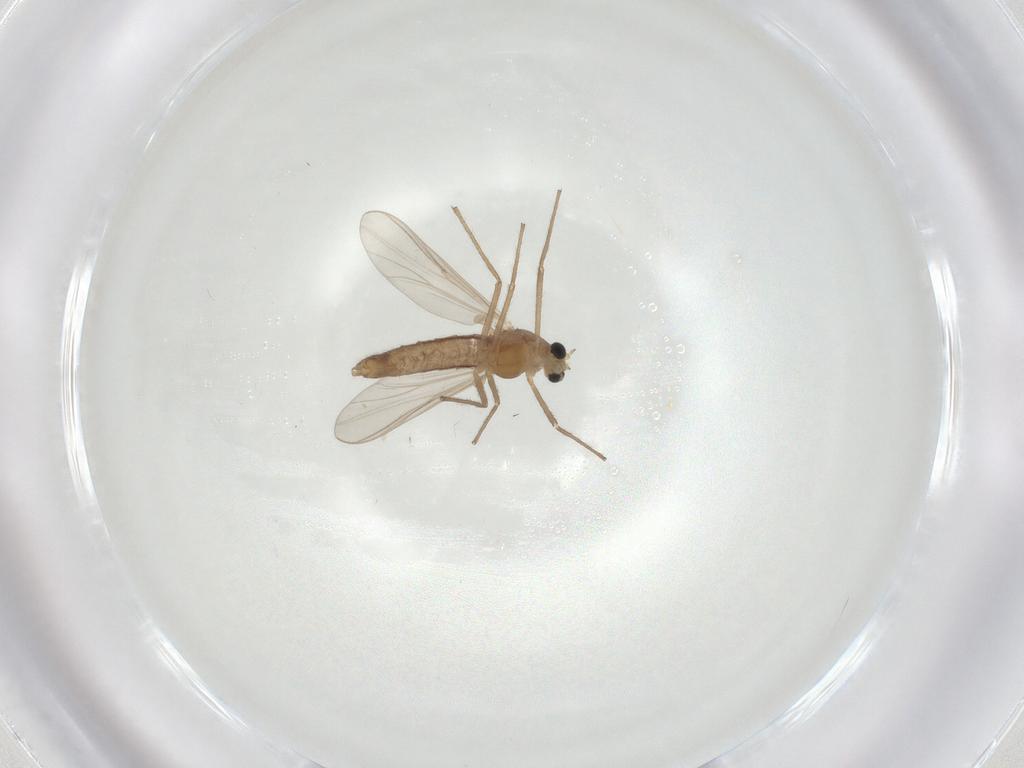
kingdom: Animalia
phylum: Arthropoda
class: Insecta
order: Diptera
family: Chironomidae
